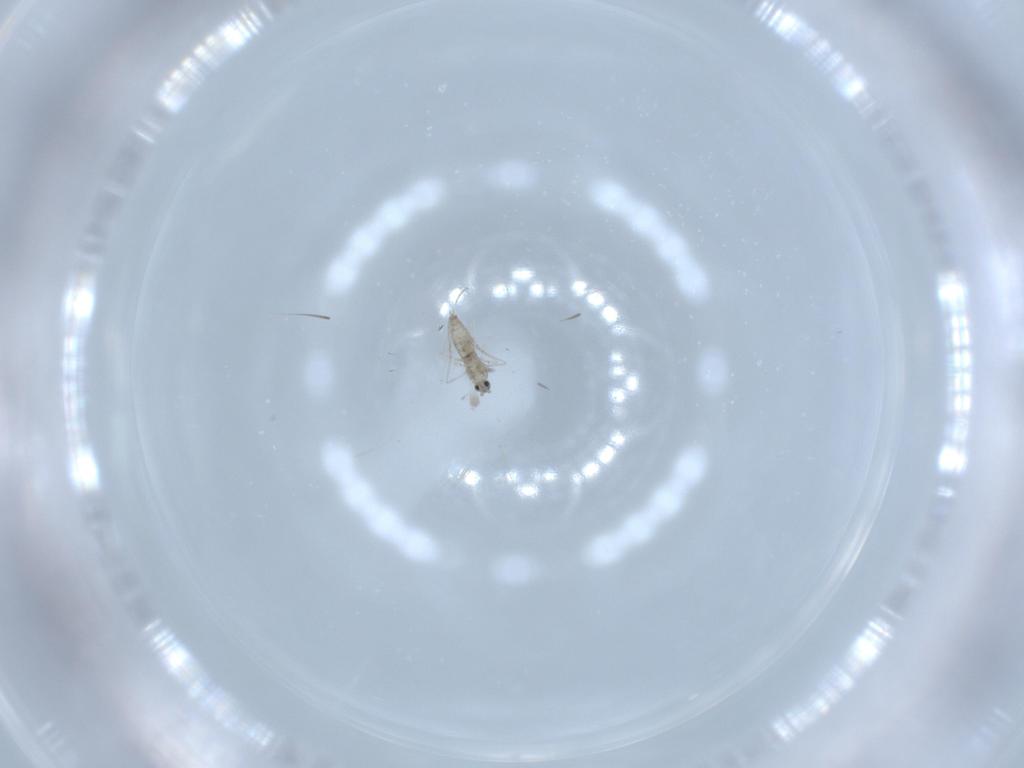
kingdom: Animalia
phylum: Arthropoda
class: Insecta
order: Diptera
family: Cecidomyiidae
